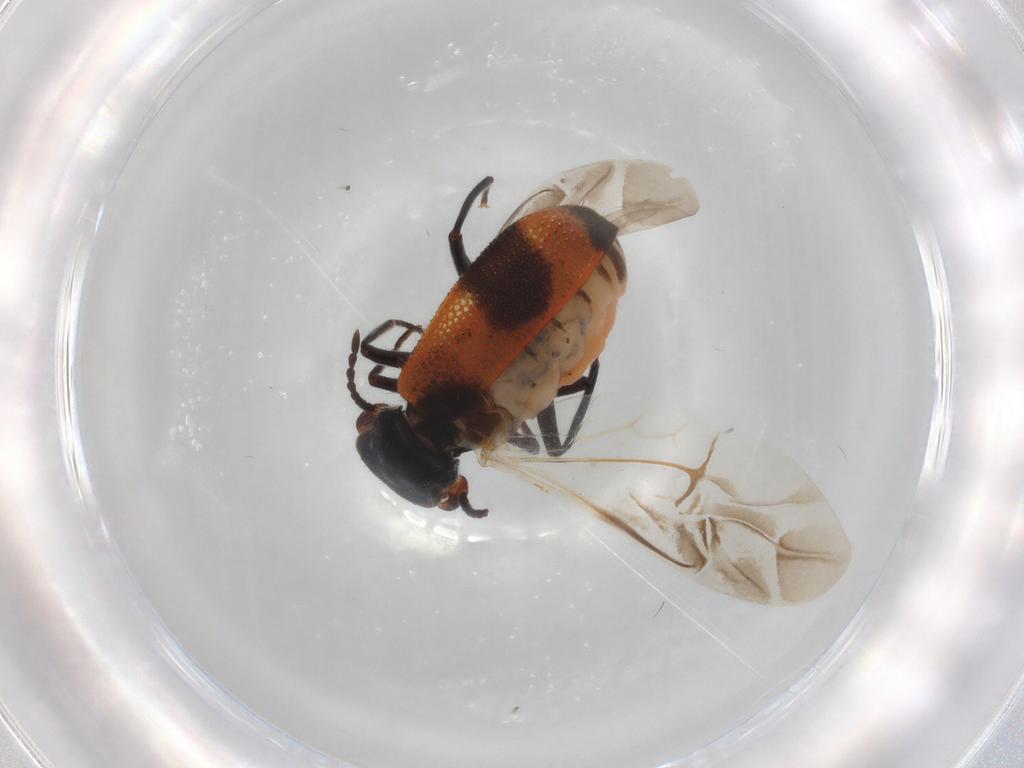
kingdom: Animalia
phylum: Arthropoda
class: Insecta
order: Coleoptera
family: Melyridae
